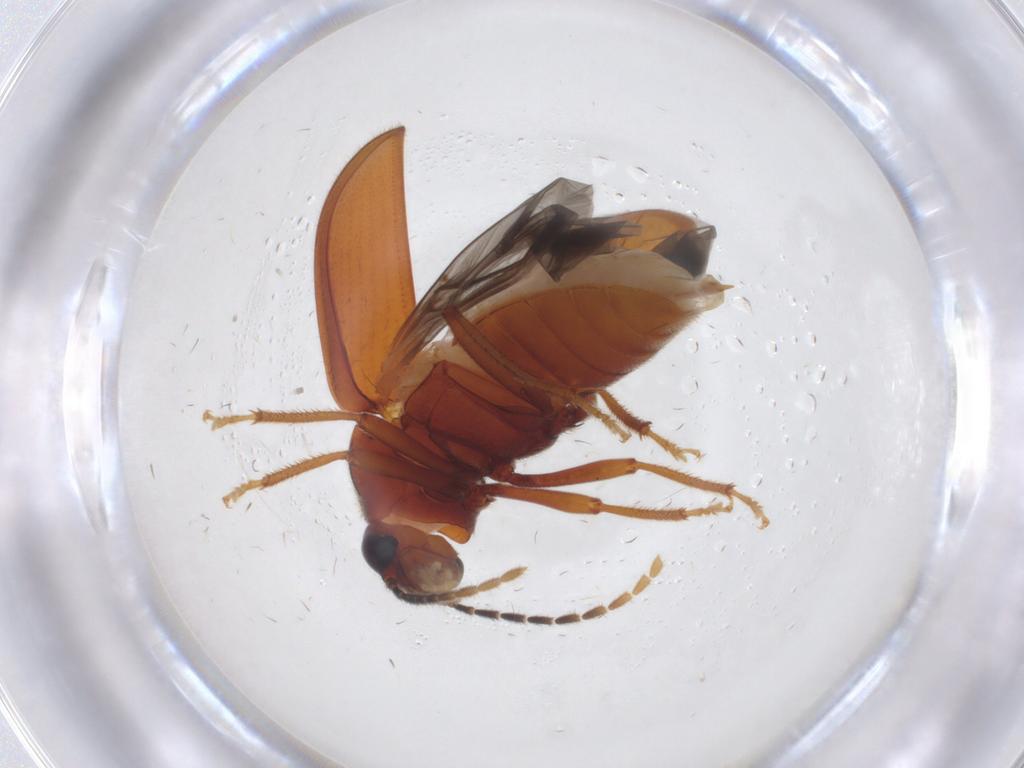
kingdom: Animalia
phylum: Arthropoda
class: Insecta
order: Coleoptera
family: Ptilodactylidae
